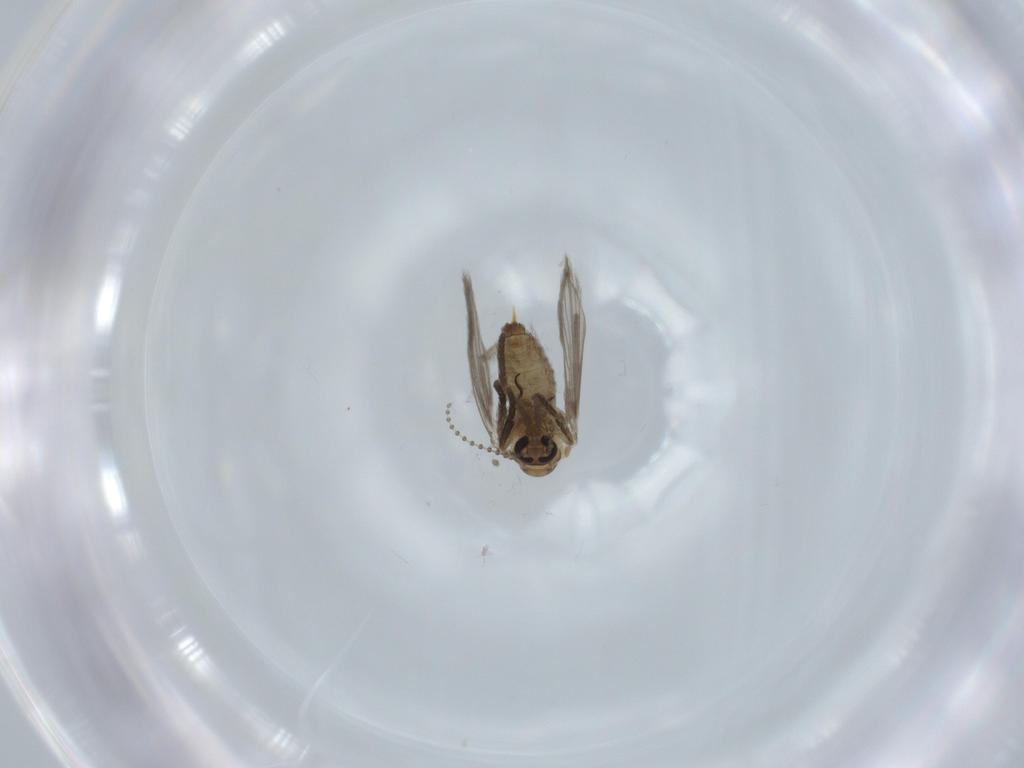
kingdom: Animalia
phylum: Arthropoda
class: Insecta
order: Diptera
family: Psychodidae
